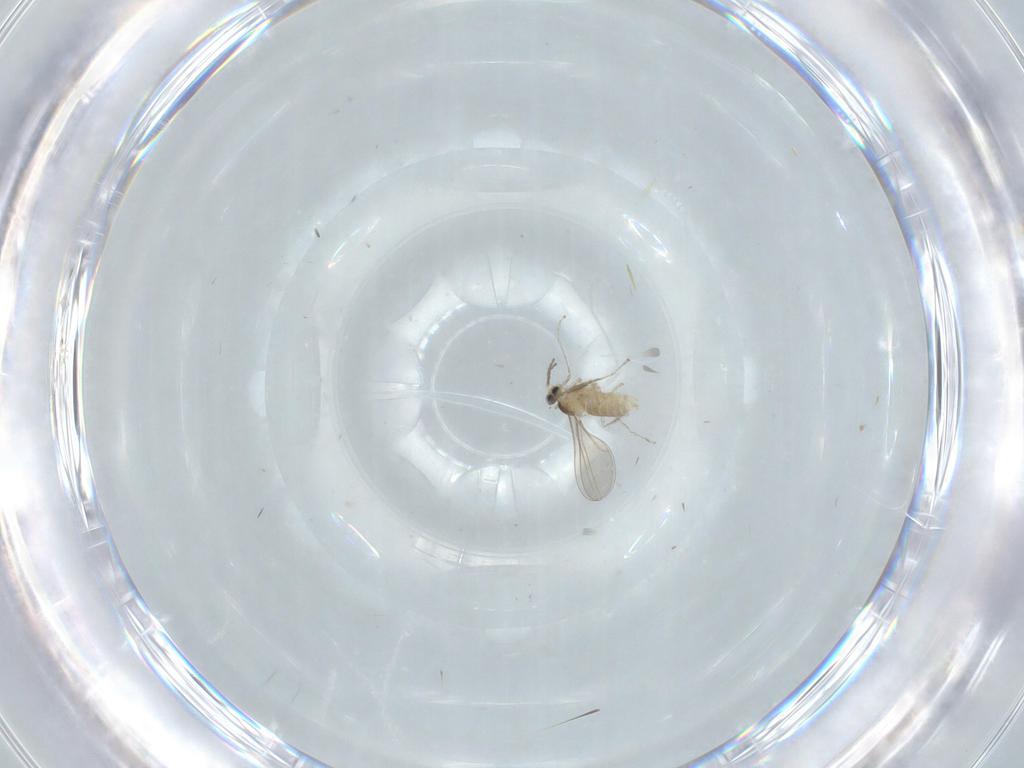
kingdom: Animalia
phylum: Arthropoda
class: Insecta
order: Diptera
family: Cecidomyiidae
